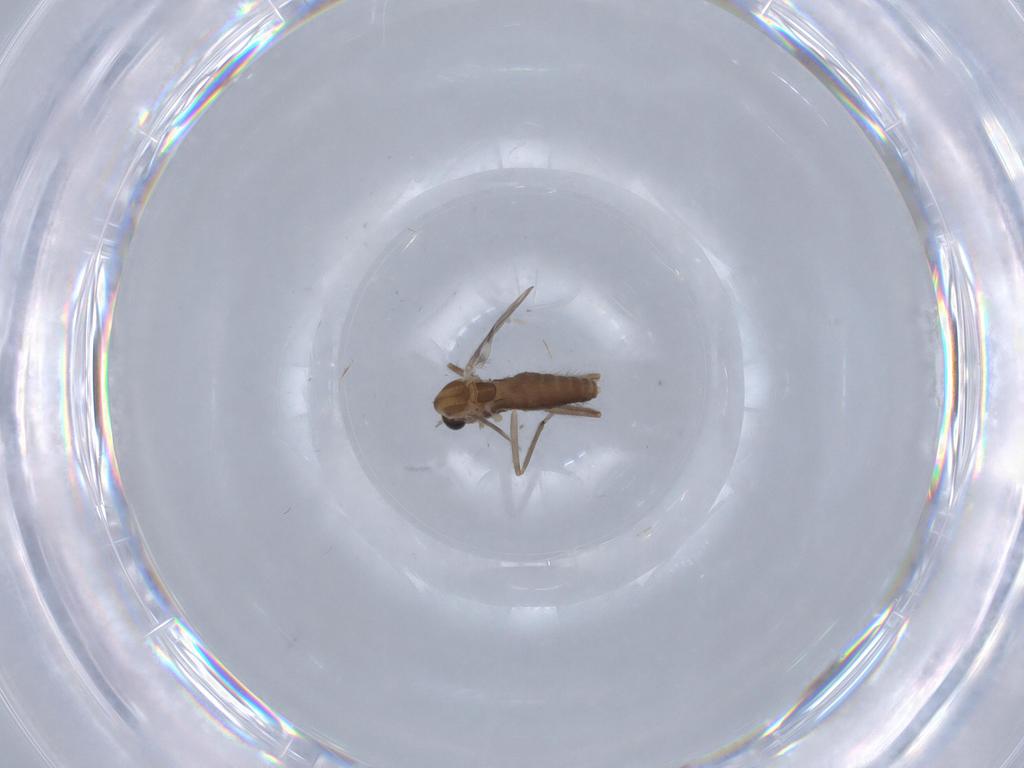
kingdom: Animalia
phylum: Arthropoda
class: Insecta
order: Diptera
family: Chironomidae
